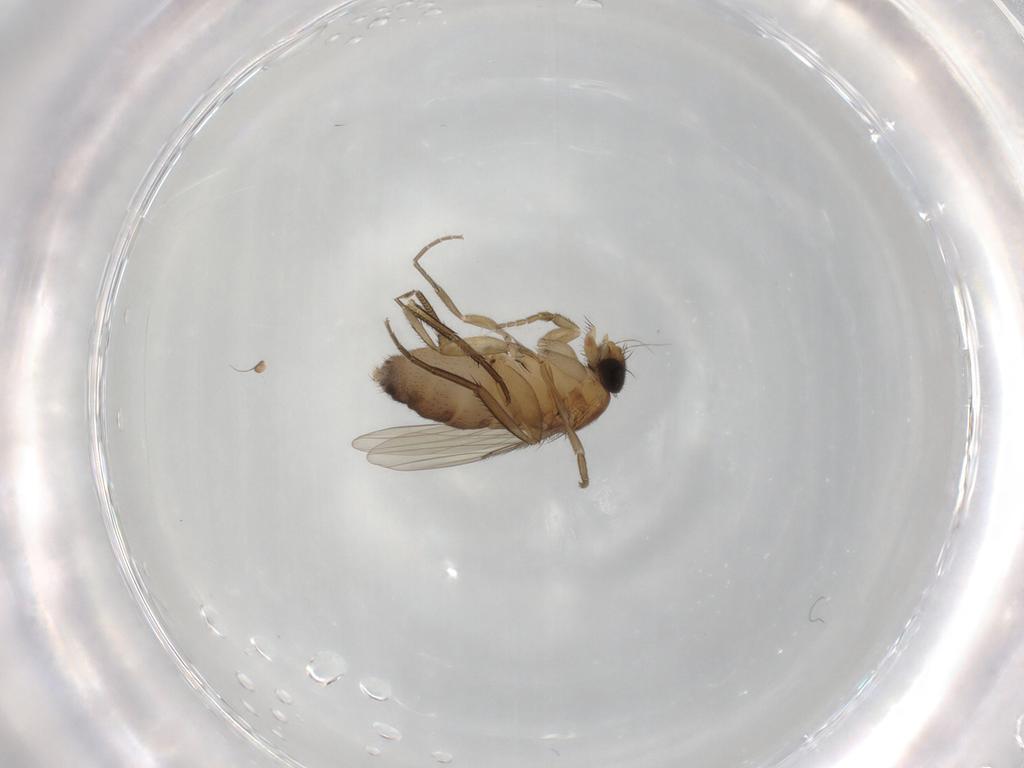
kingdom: Animalia
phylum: Arthropoda
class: Insecta
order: Diptera
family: Phoridae
